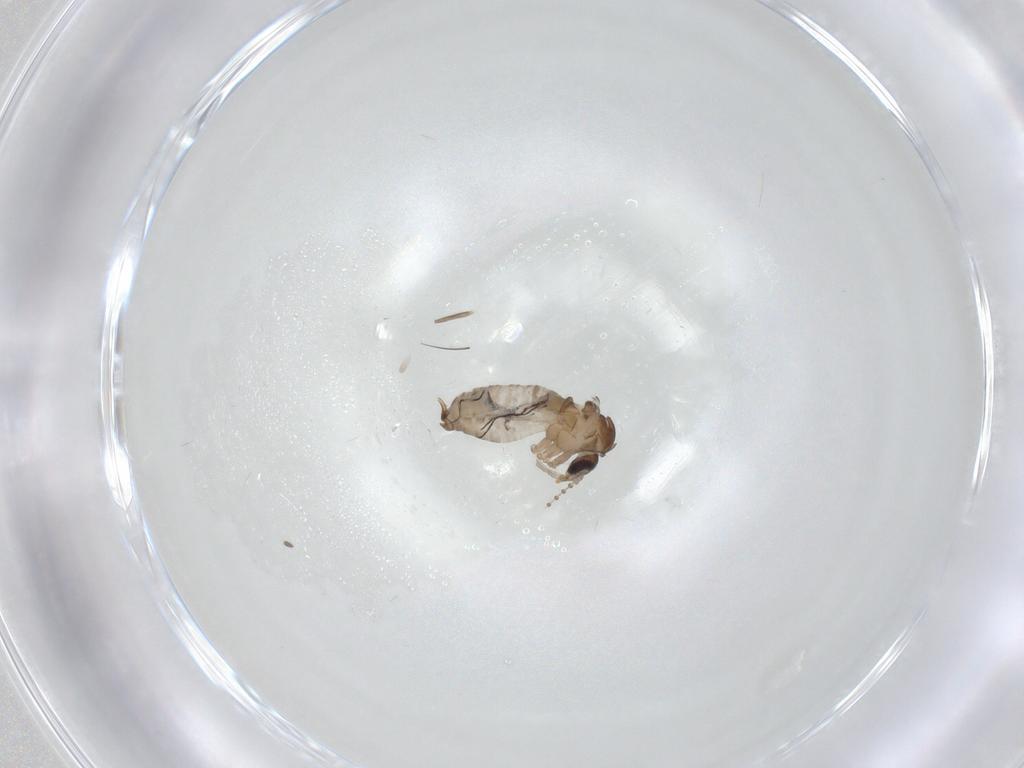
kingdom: Animalia
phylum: Arthropoda
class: Insecta
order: Diptera
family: Psychodidae
